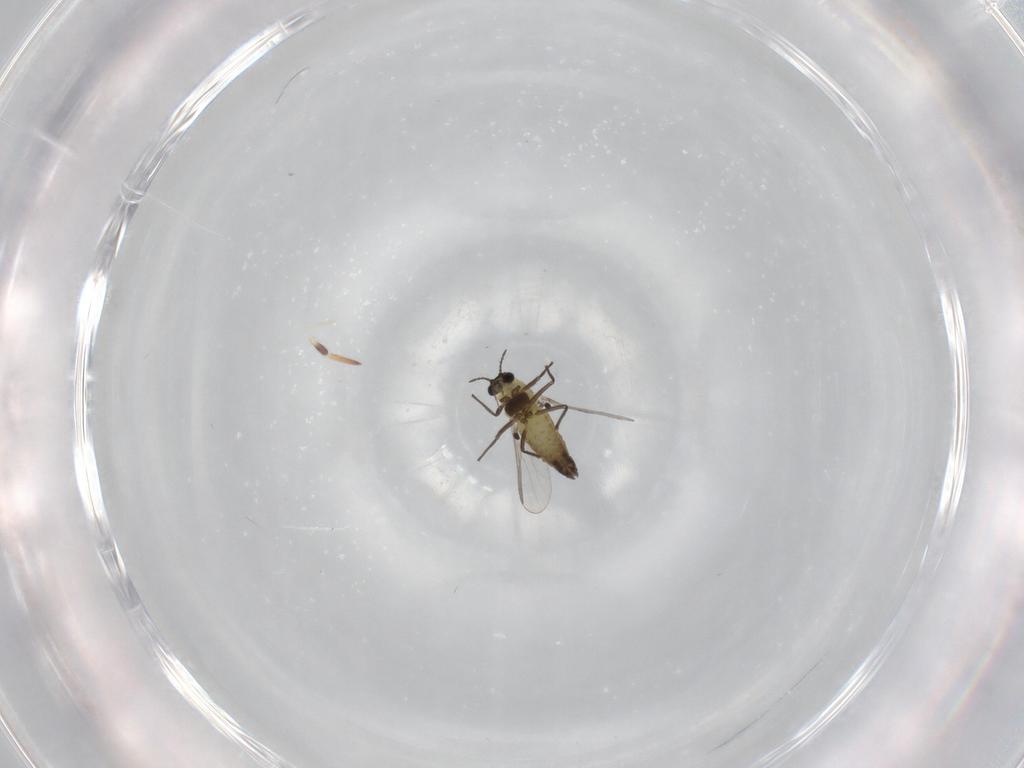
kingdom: Animalia
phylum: Arthropoda
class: Insecta
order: Diptera
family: Chironomidae
